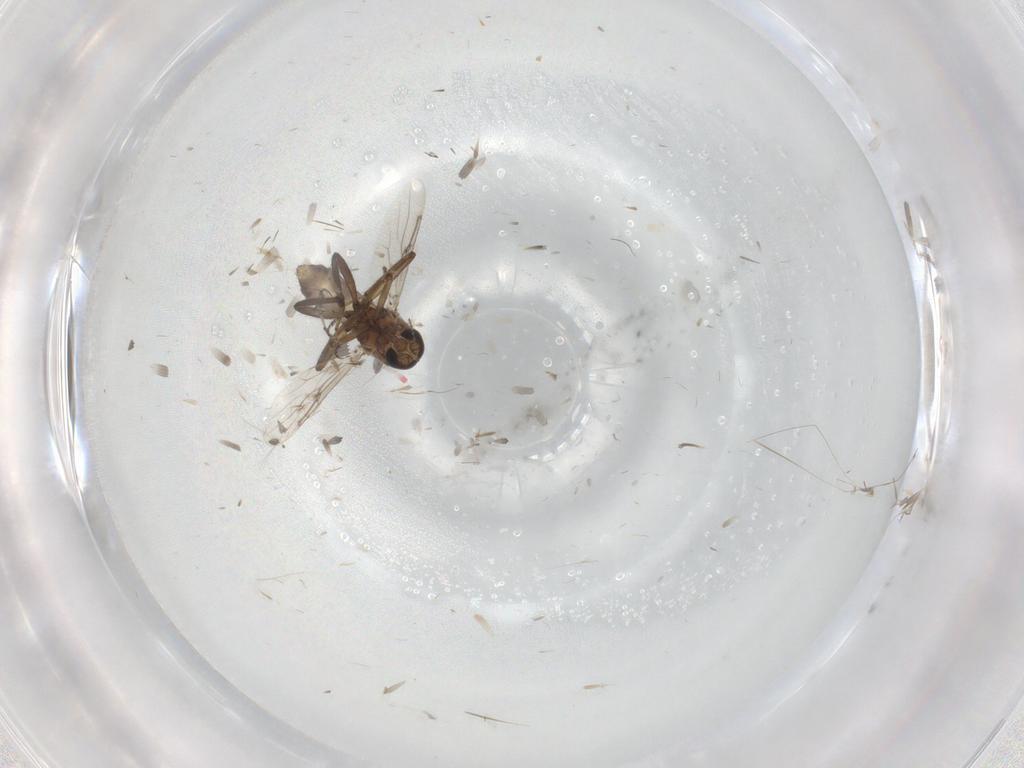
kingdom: Animalia
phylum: Arthropoda
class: Insecta
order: Diptera
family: Ceratopogonidae
